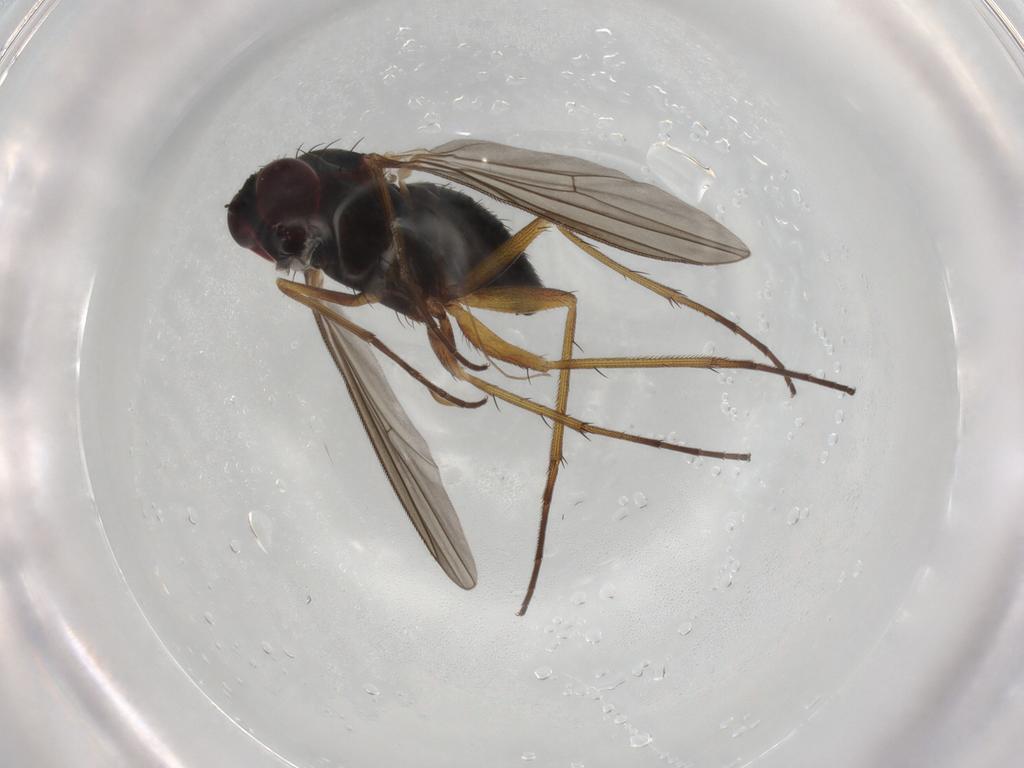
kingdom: Animalia
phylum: Arthropoda
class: Insecta
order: Diptera
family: Dolichopodidae
